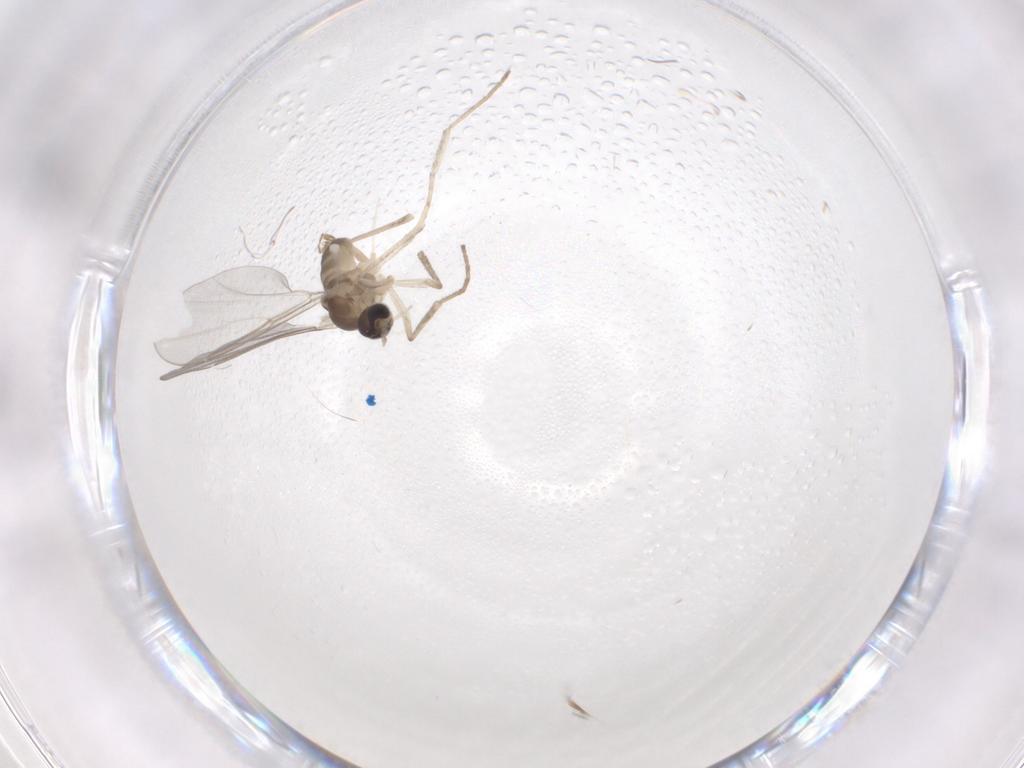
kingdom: Animalia
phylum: Arthropoda
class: Insecta
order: Diptera
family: Cecidomyiidae
